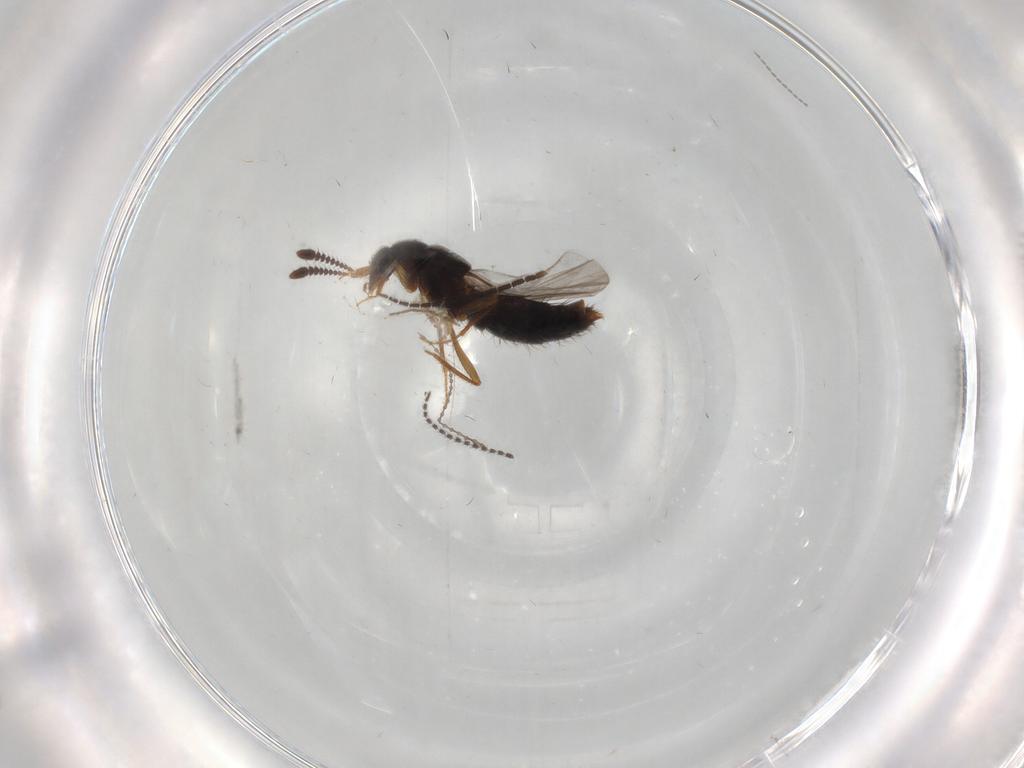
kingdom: Animalia
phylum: Arthropoda
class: Insecta
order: Coleoptera
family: Staphylinidae
